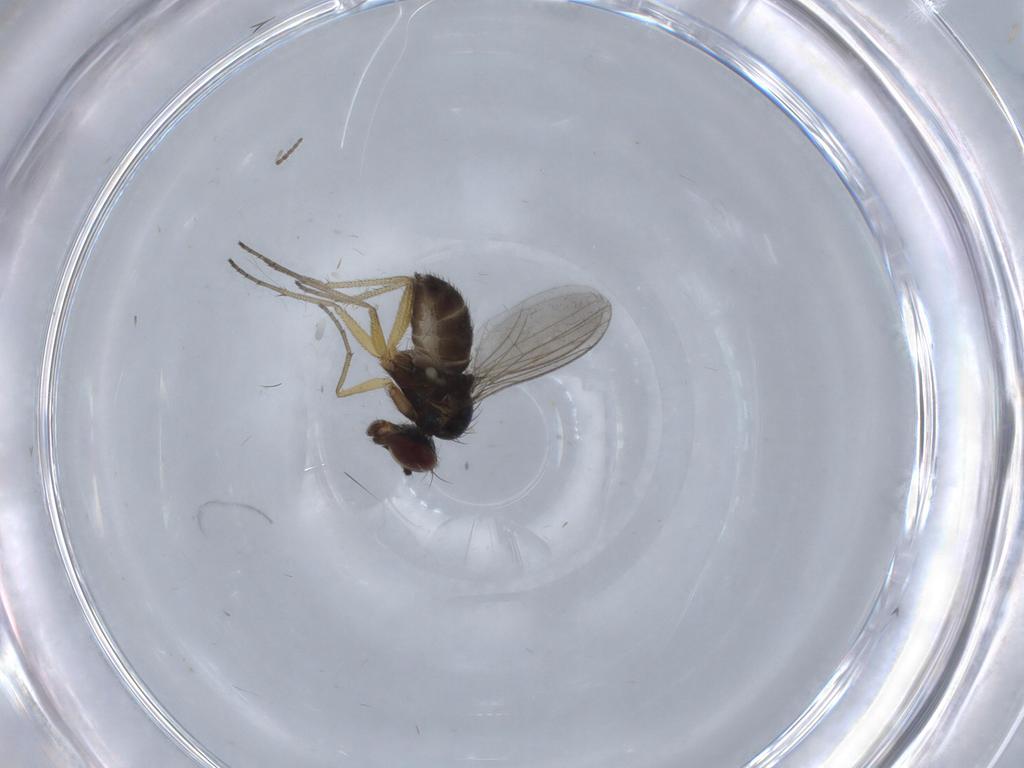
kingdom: Animalia
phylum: Arthropoda
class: Insecta
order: Diptera
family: Dolichopodidae
